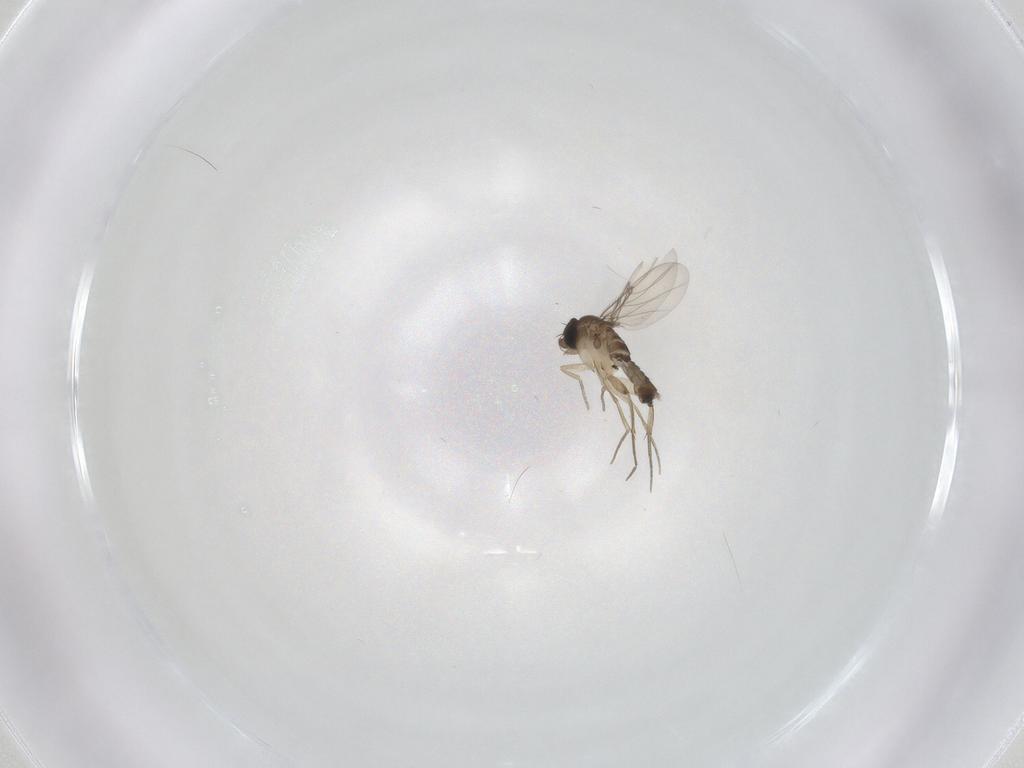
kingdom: Animalia
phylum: Arthropoda
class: Insecta
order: Diptera
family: Phoridae
